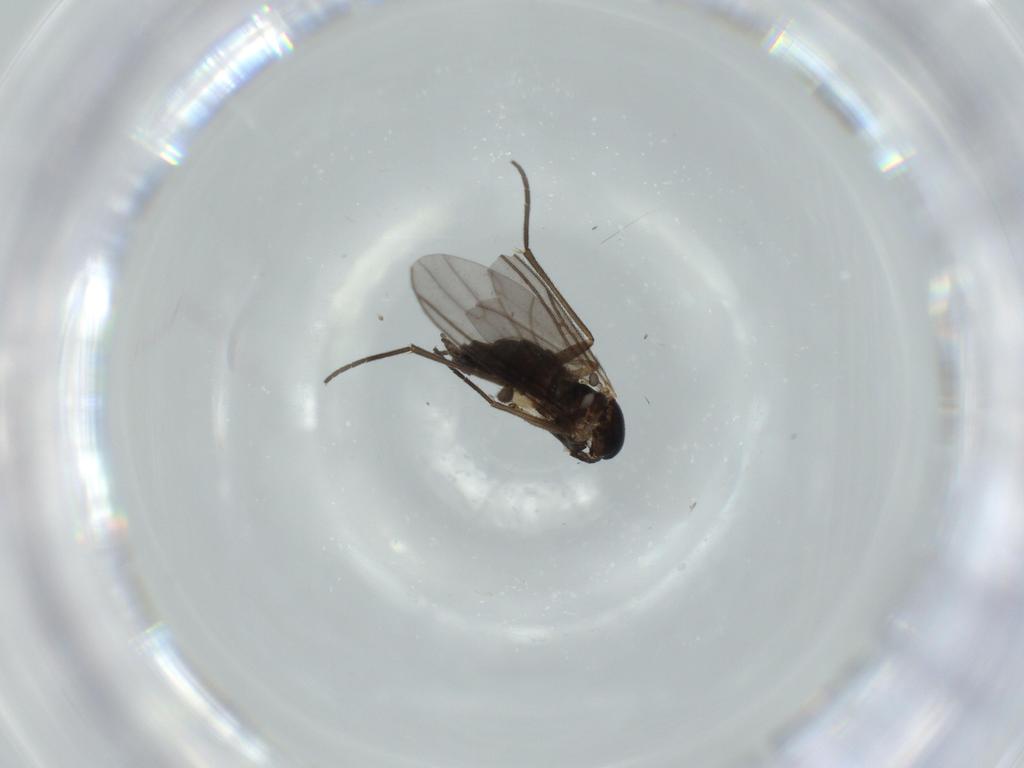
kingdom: Animalia
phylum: Arthropoda
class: Insecta
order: Diptera
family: Sciaridae
